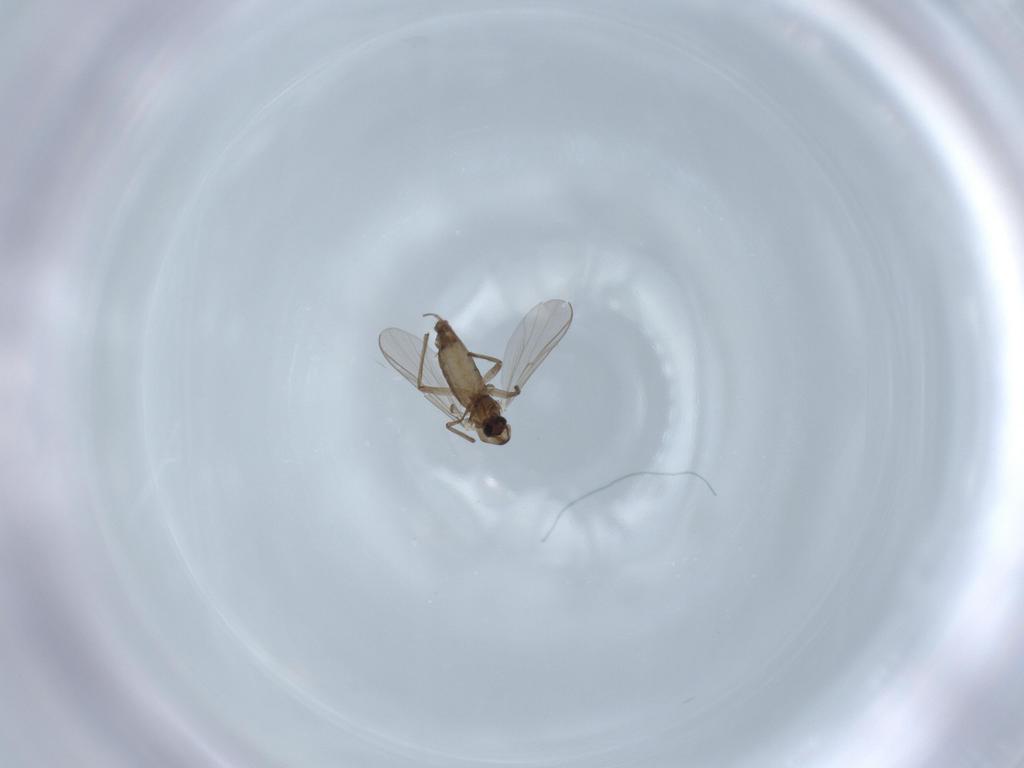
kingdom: Animalia
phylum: Arthropoda
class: Insecta
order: Diptera
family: Chironomidae
